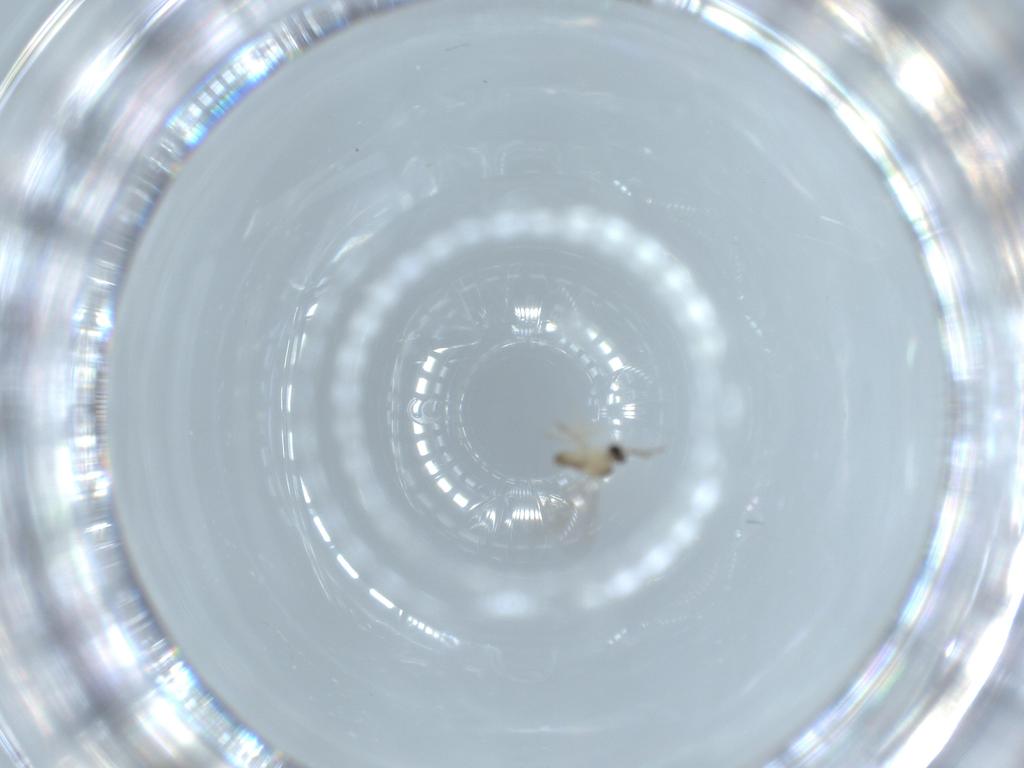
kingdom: Animalia
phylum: Arthropoda
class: Insecta
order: Diptera
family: Cecidomyiidae
